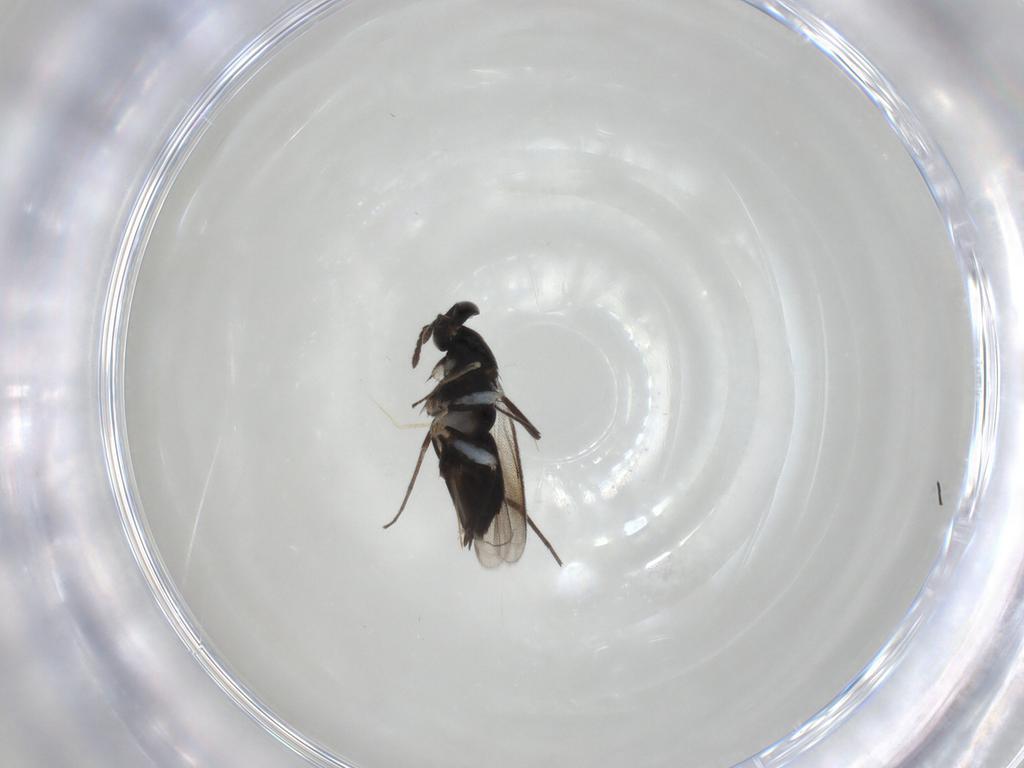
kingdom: Animalia
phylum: Arthropoda
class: Insecta
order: Hymenoptera
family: Eulophidae
